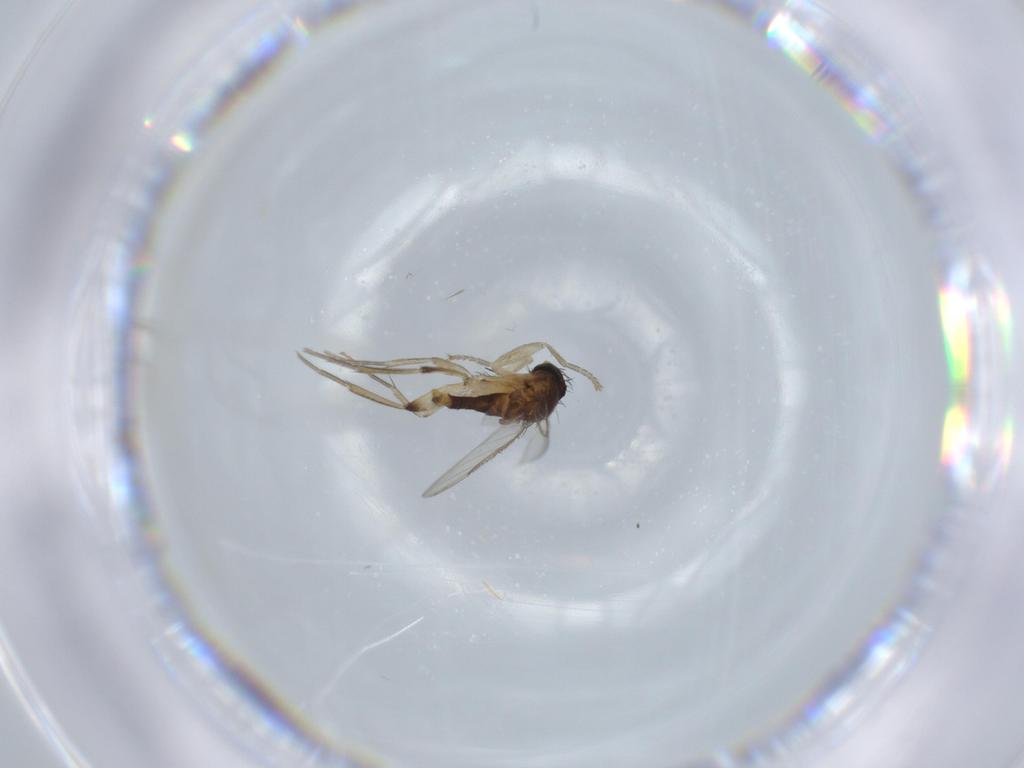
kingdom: Animalia
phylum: Arthropoda
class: Insecta
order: Diptera
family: Phoridae
